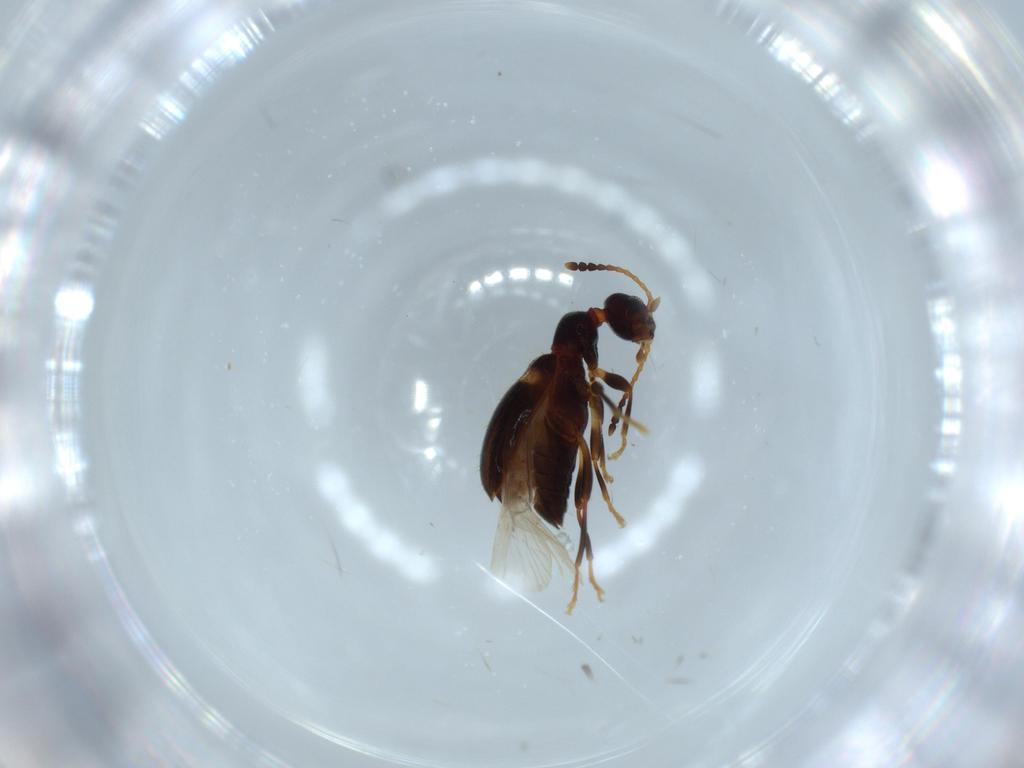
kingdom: Animalia
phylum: Arthropoda
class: Insecta
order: Coleoptera
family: Anthicidae
